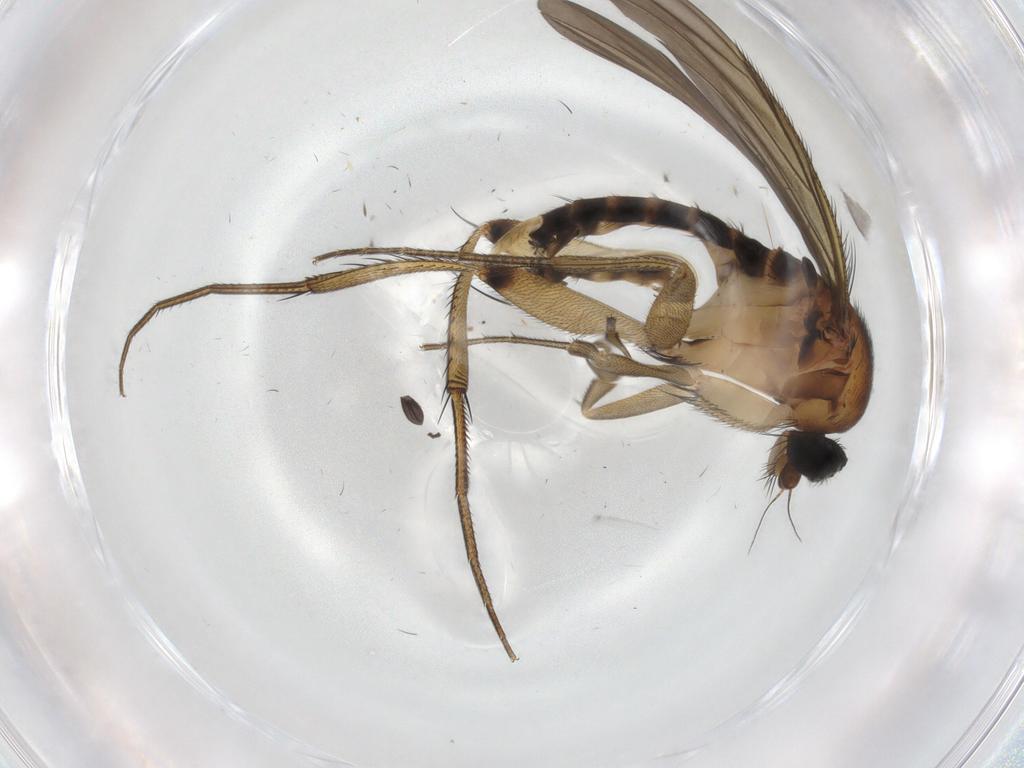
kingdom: Animalia
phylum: Arthropoda
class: Insecta
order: Diptera
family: Phoridae
